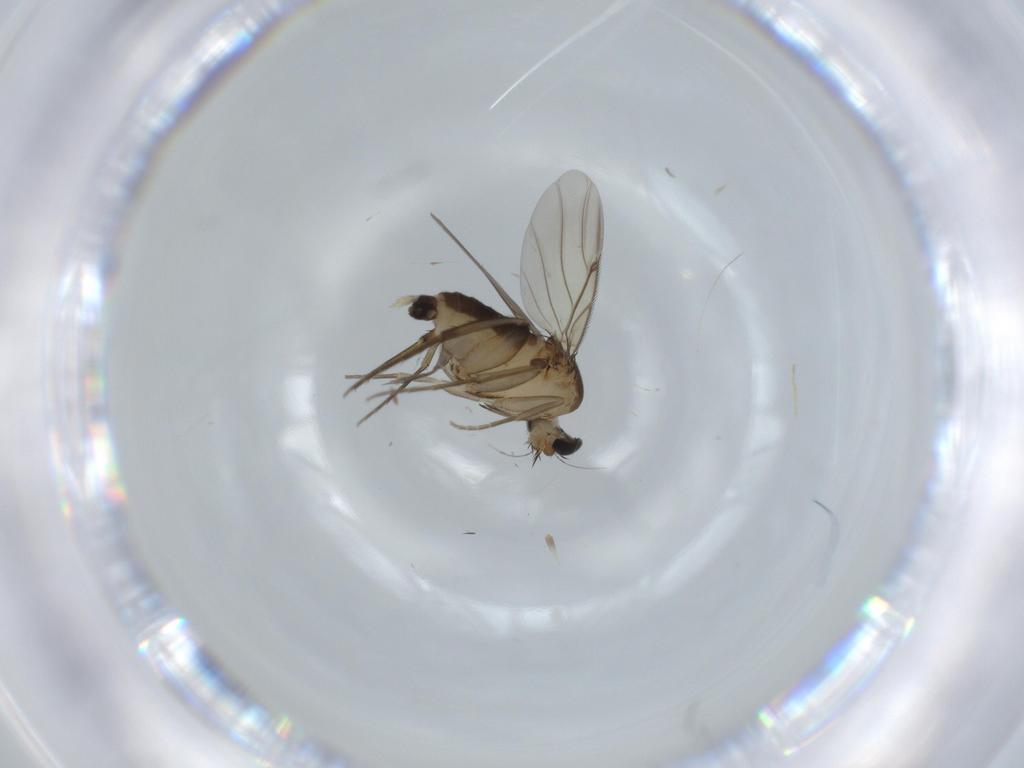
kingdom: Animalia
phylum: Arthropoda
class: Insecta
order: Diptera
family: Phoridae
